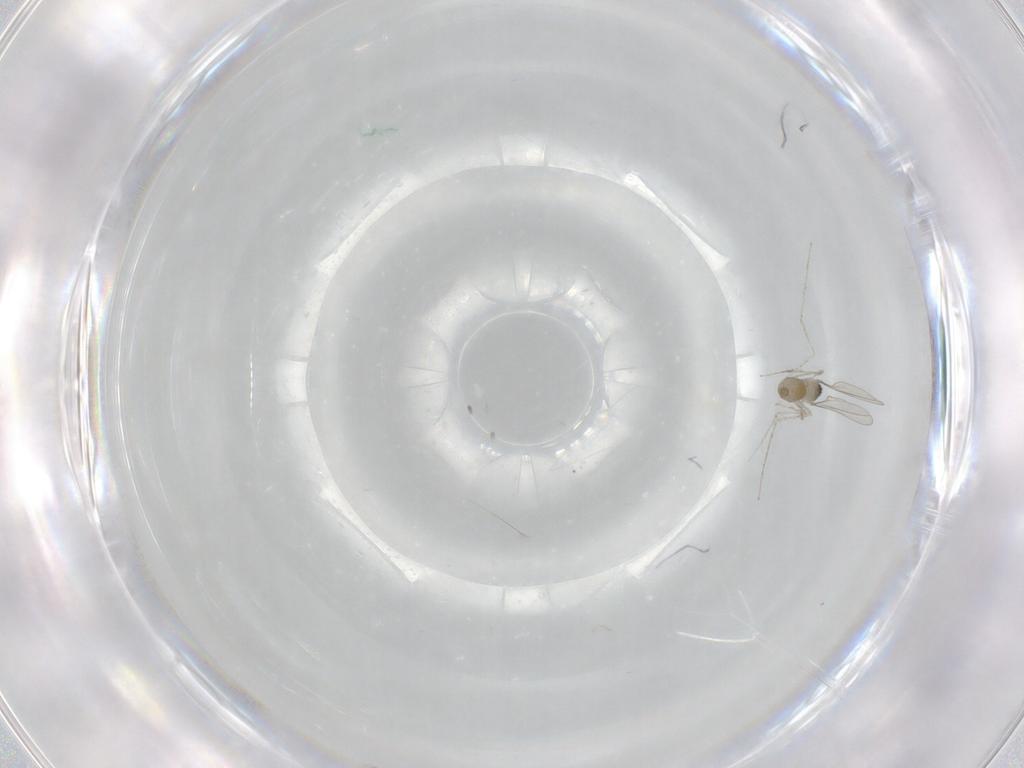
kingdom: Animalia
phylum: Arthropoda
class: Insecta
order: Diptera
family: Cecidomyiidae
